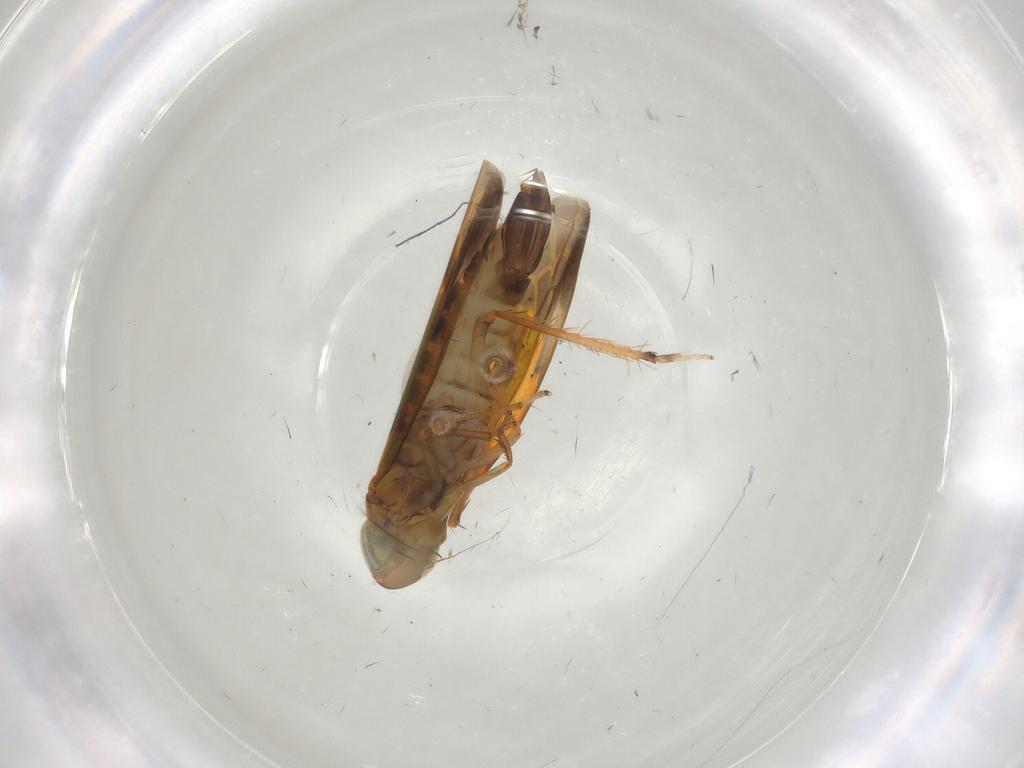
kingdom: Animalia
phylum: Arthropoda
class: Insecta
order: Hemiptera
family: Cicadellidae
